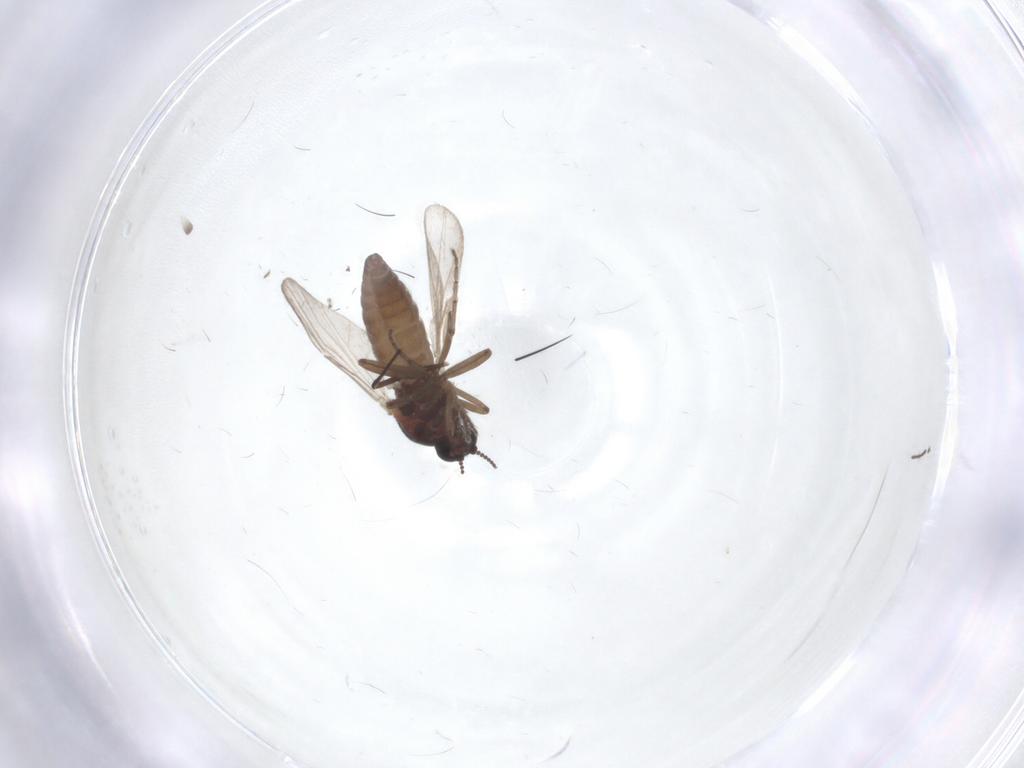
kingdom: Animalia
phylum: Arthropoda
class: Insecta
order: Diptera
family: Ceratopogonidae
